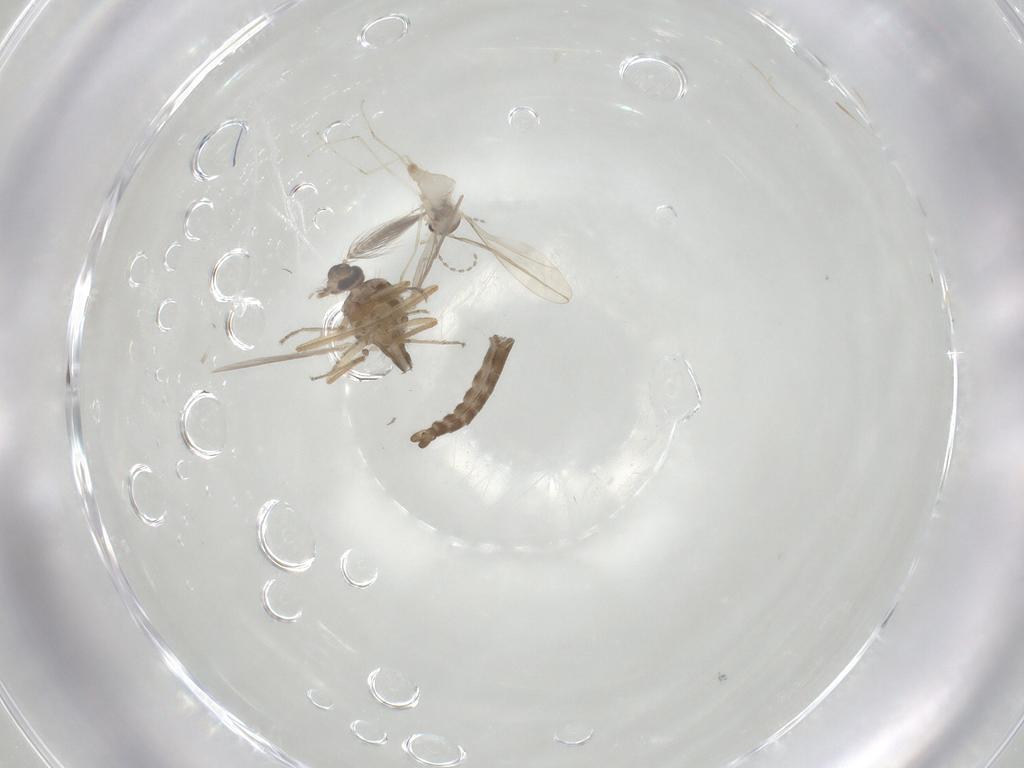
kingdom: Animalia
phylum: Arthropoda
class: Insecta
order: Diptera
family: Ceratopogonidae
